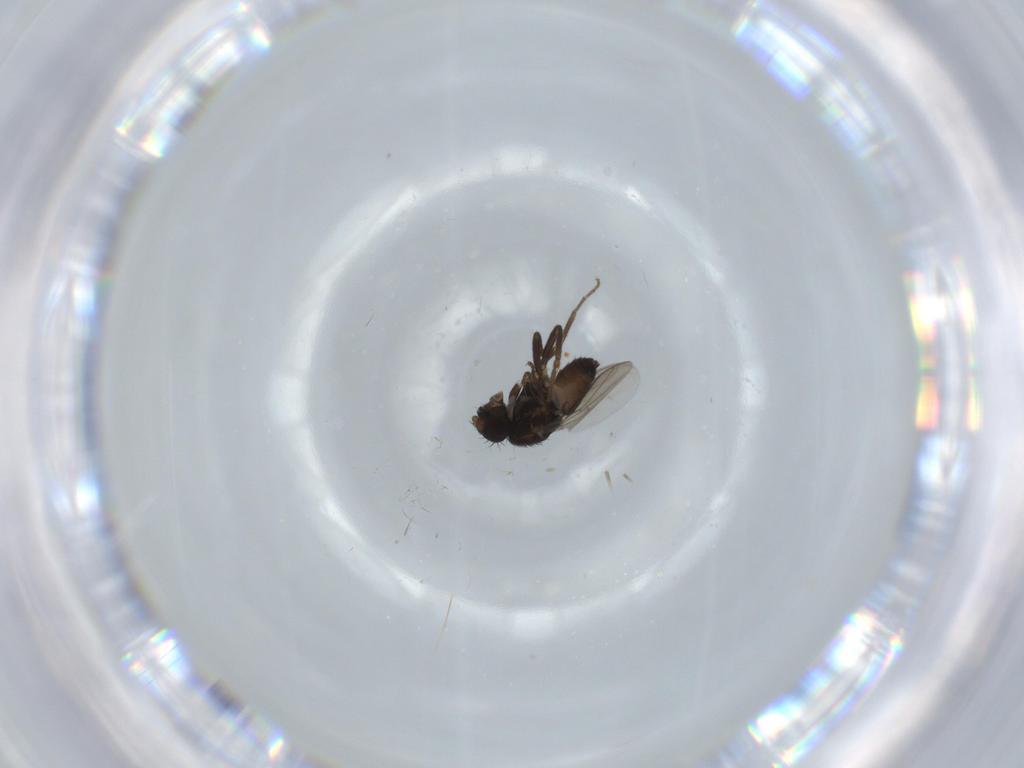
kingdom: Animalia
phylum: Arthropoda
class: Insecta
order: Diptera
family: Sphaeroceridae
